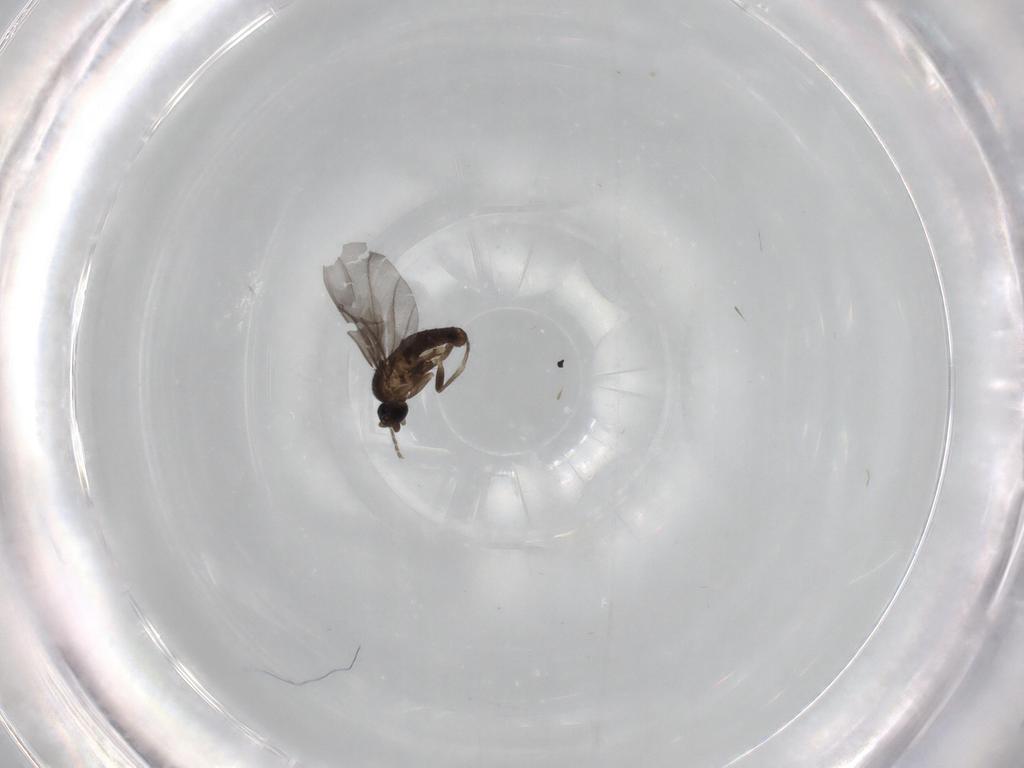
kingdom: Animalia
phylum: Arthropoda
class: Insecta
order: Diptera
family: Phoridae
